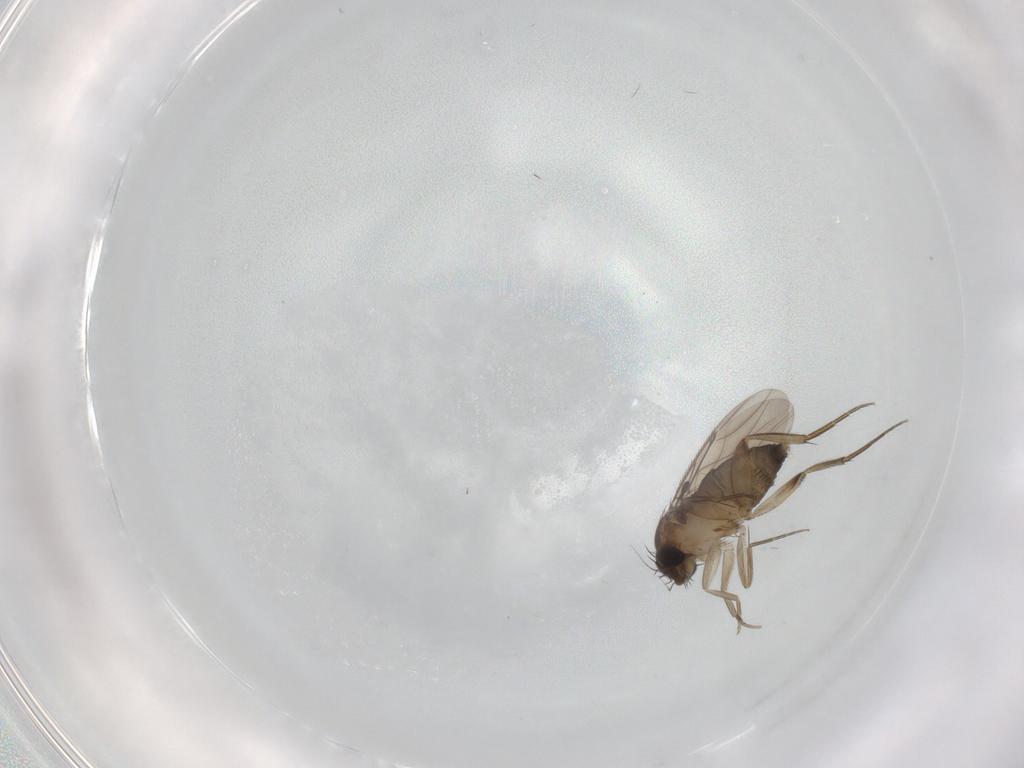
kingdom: Animalia
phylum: Arthropoda
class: Insecta
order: Diptera
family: Phoridae
